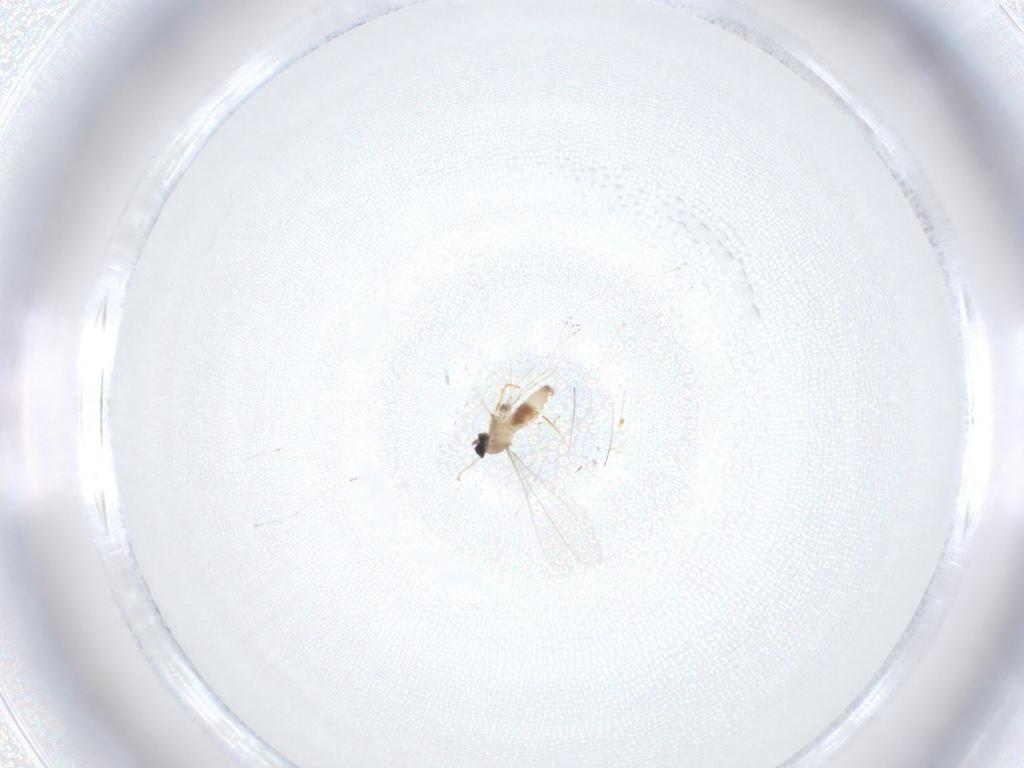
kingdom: Animalia
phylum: Arthropoda
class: Insecta
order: Diptera
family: Cecidomyiidae
